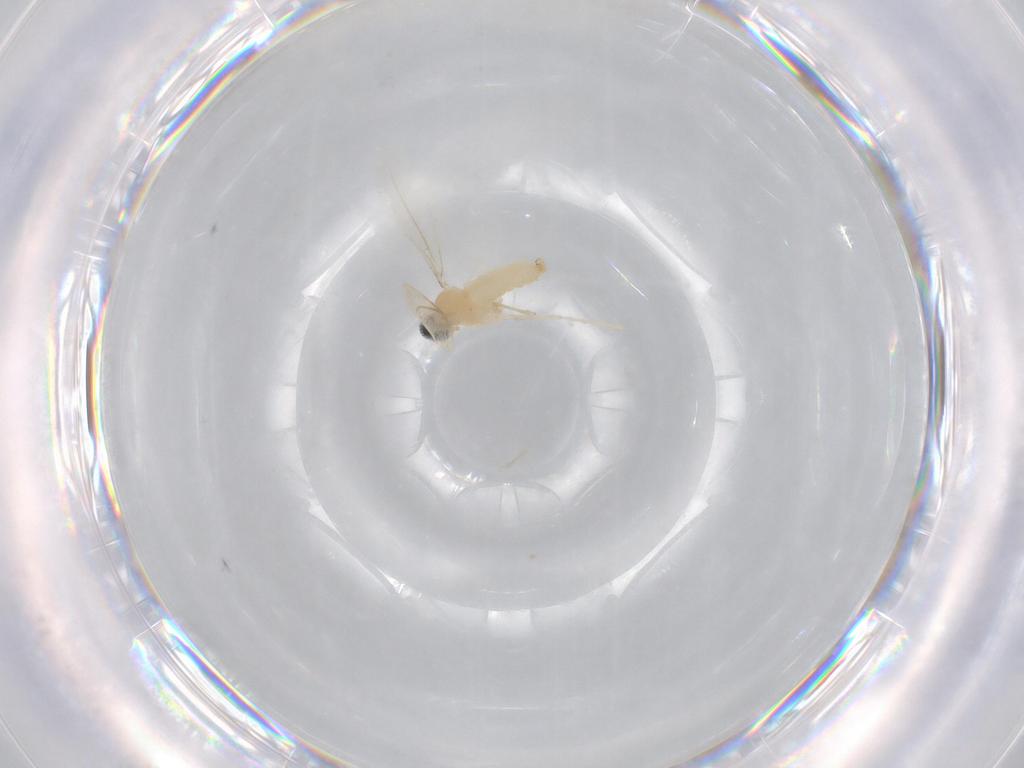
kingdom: Animalia
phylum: Arthropoda
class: Insecta
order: Diptera
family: Cecidomyiidae
